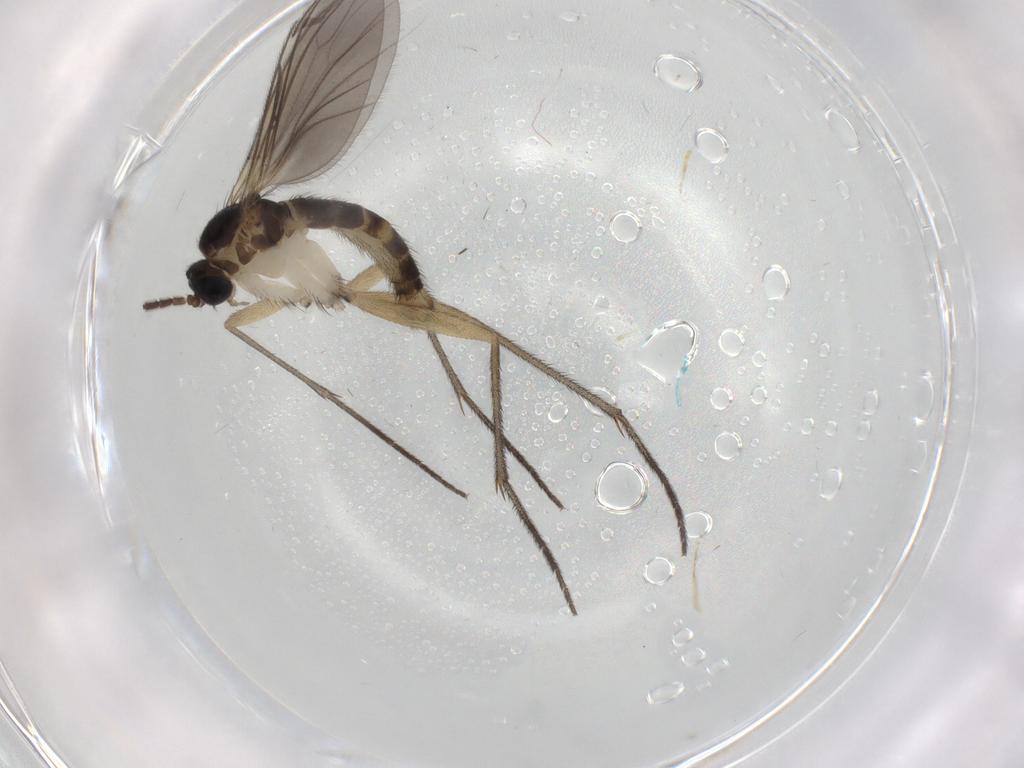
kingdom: Animalia
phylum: Arthropoda
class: Insecta
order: Diptera
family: Sciaridae
